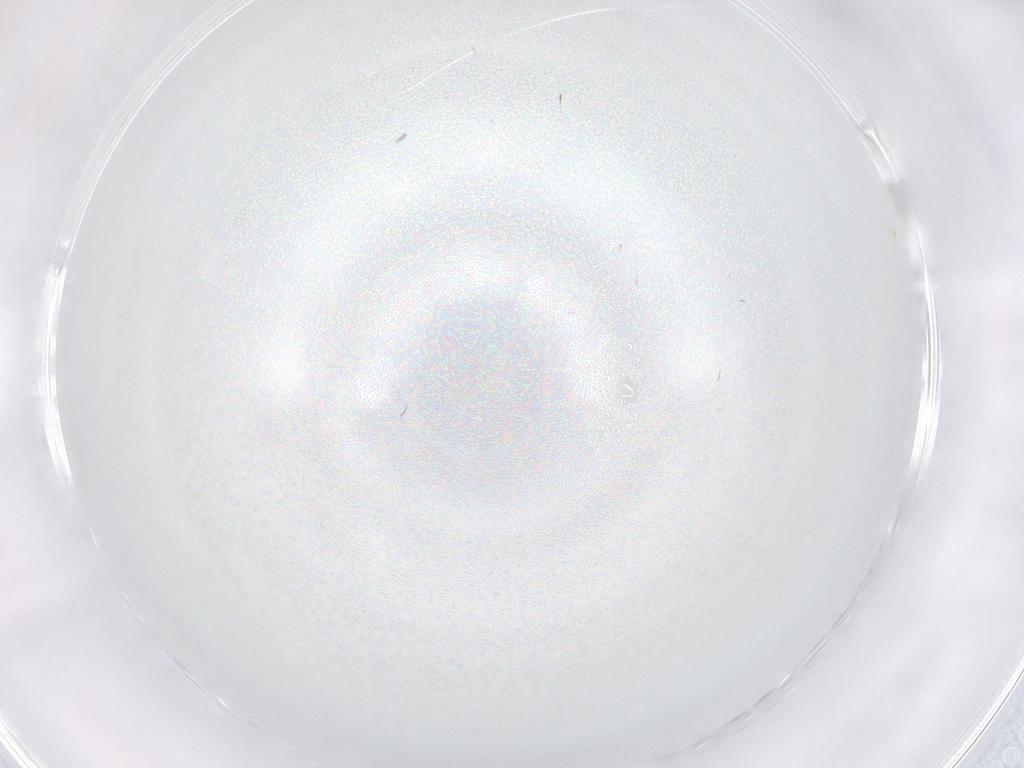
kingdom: Animalia
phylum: Arthropoda
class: Insecta
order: Diptera
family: Cecidomyiidae
